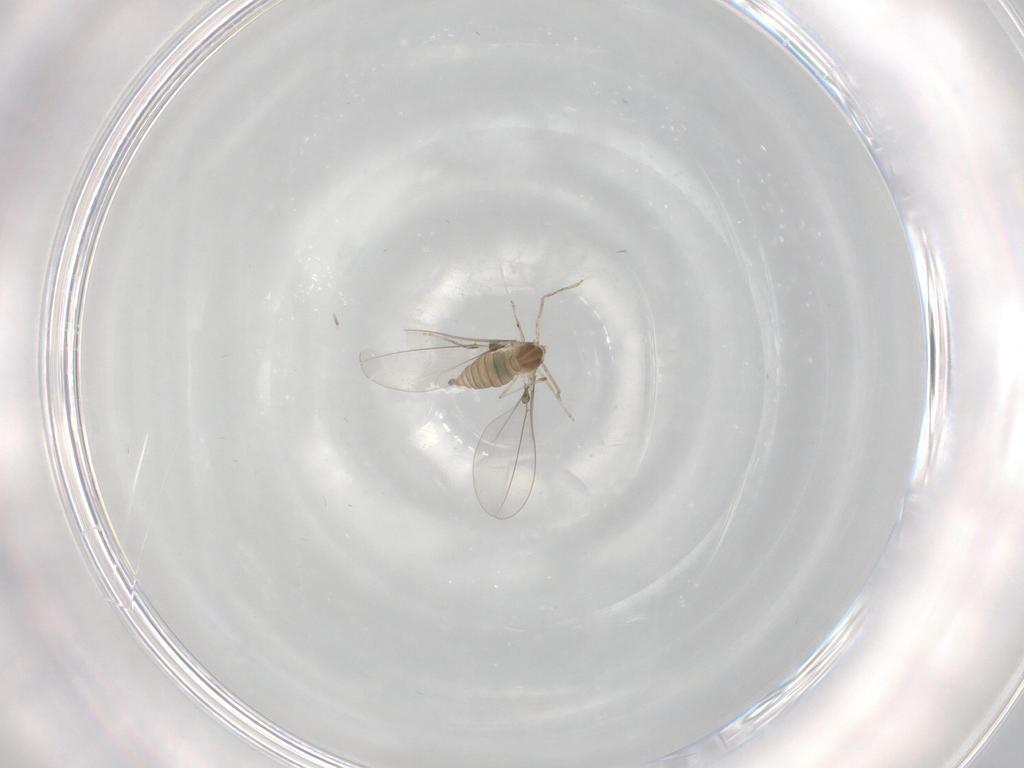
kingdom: Animalia
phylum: Arthropoda
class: Insecta
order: Diptera
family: Cecidomyiidae
